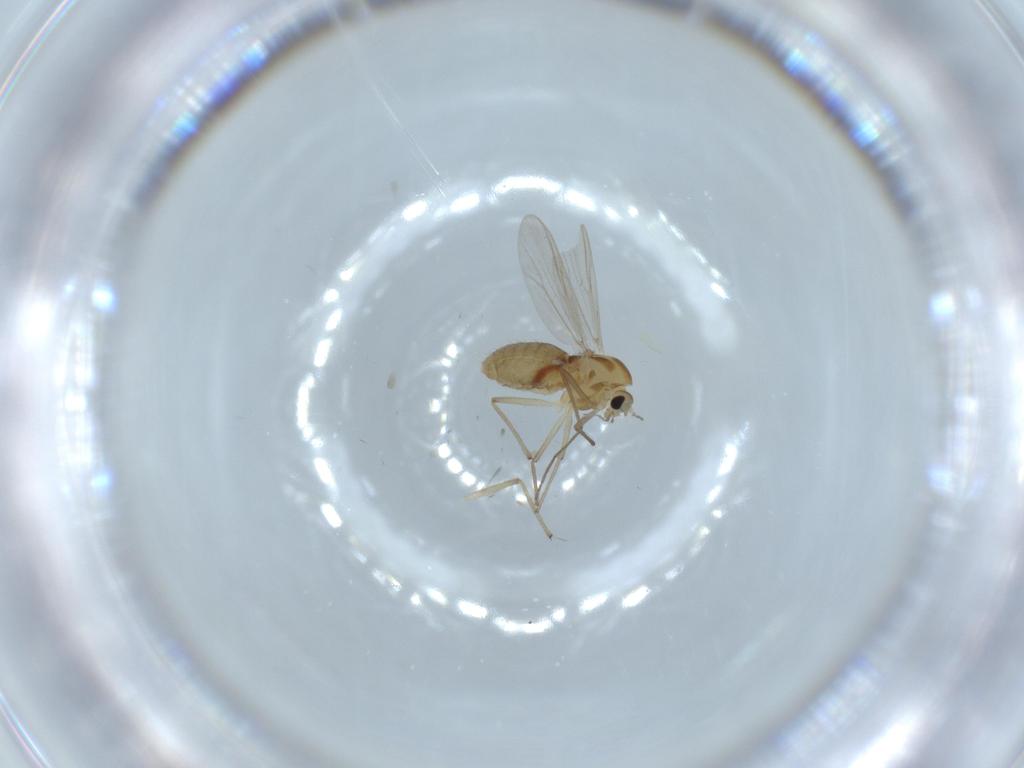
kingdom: Animalia
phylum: Arthropoda
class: Insecta
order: Diptera
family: Chironomidae
